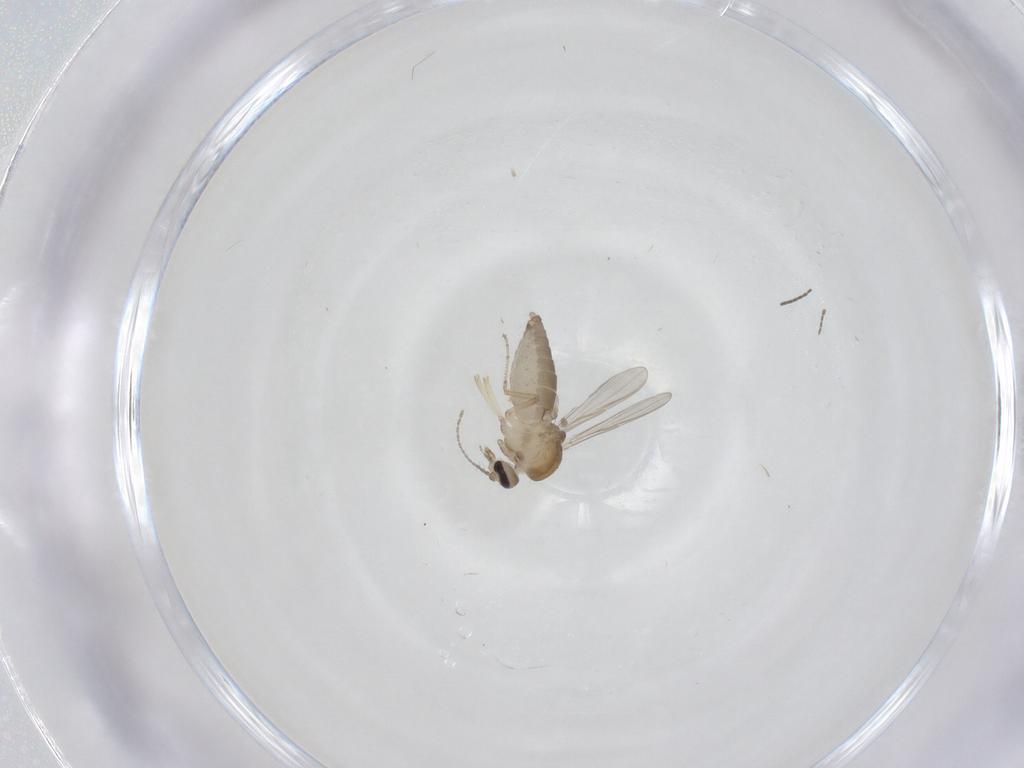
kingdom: Animalia
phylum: Arthropoda
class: Insecta
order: Diptera
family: Ceratopogonidae
